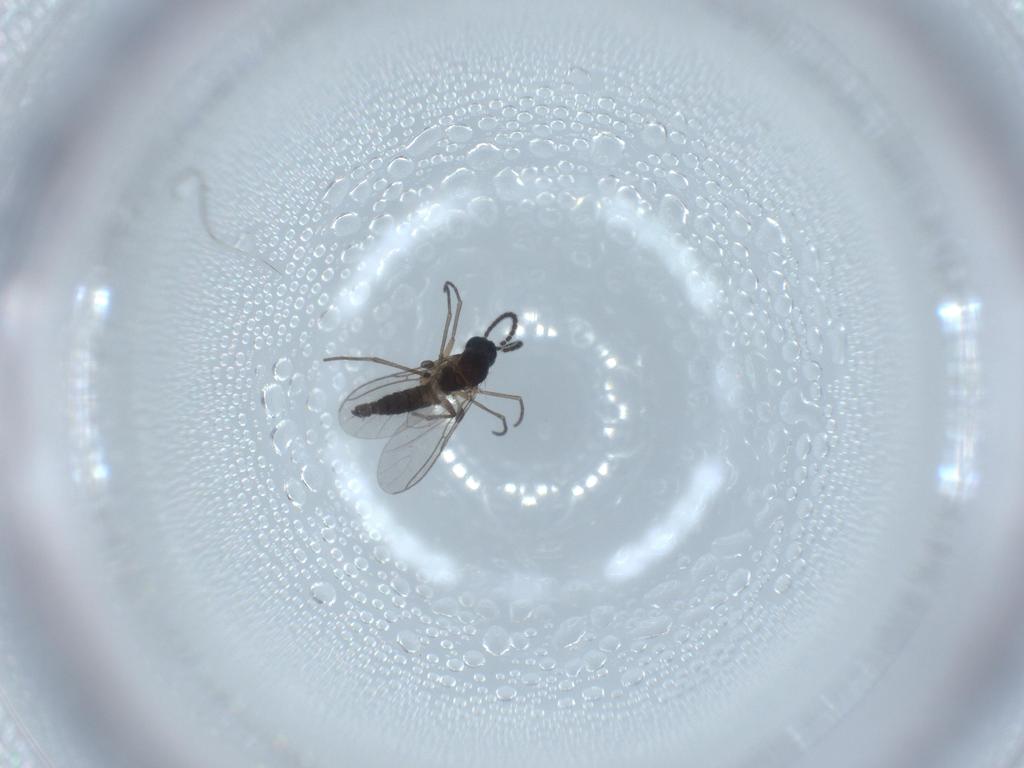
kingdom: Animalia
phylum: Arthropoda
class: Insecta
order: Diptera
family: Sciaridae
